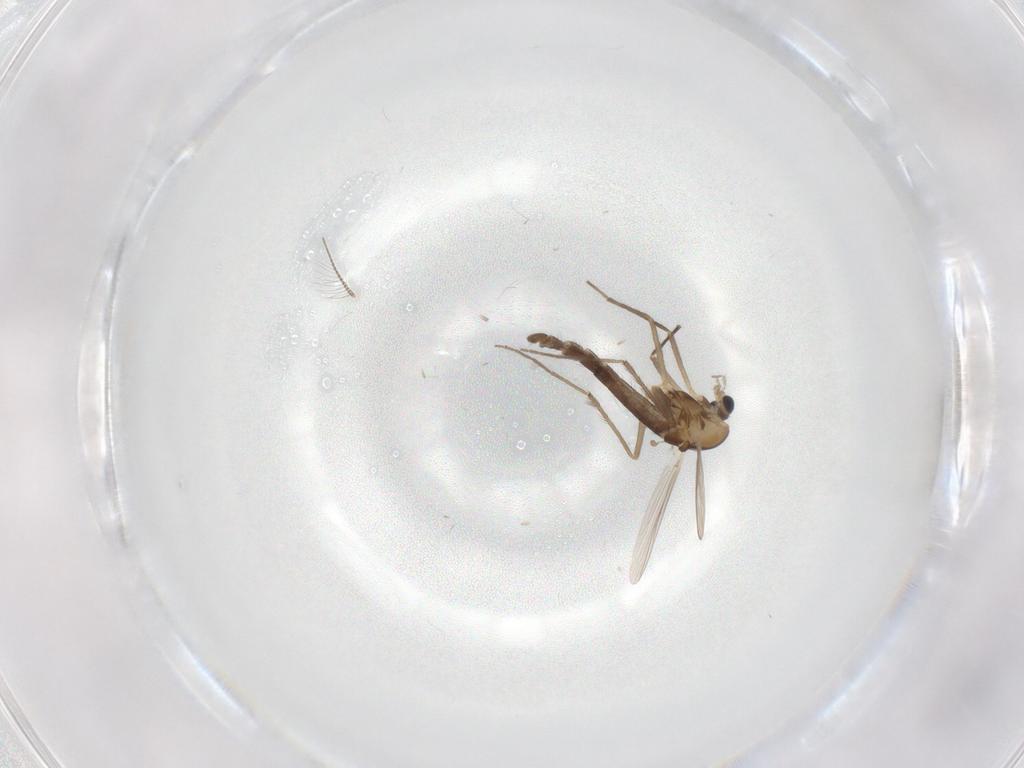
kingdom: Animalia
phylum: Arthropoda
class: Insecta
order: Diptera
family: Chironomidae
